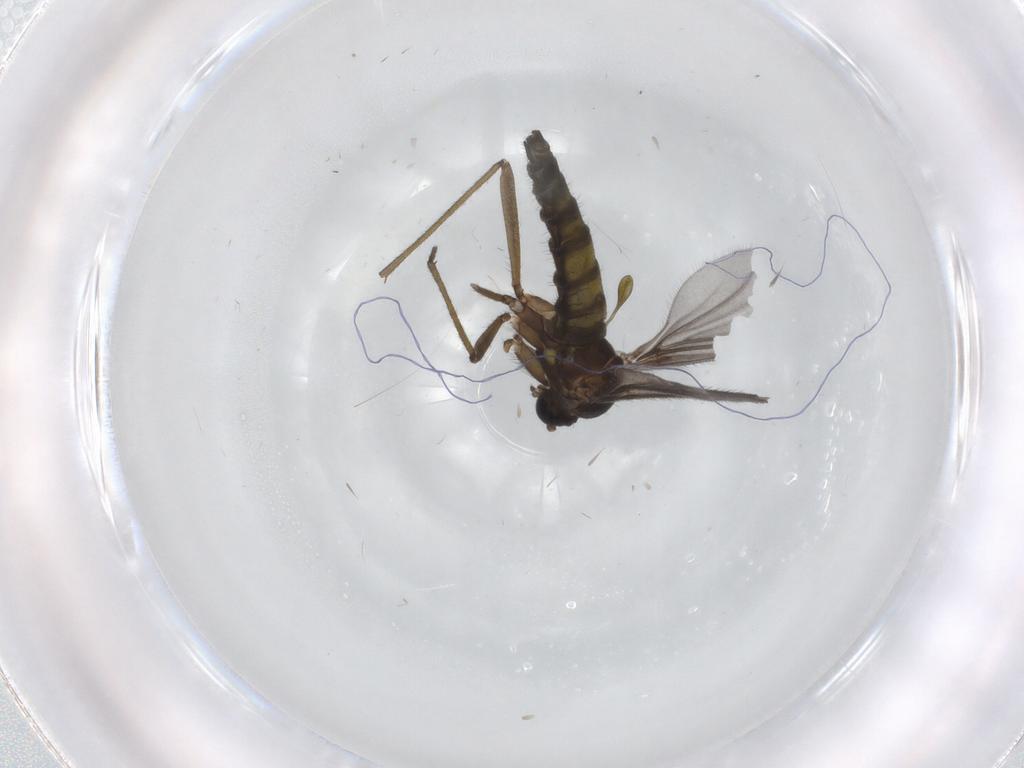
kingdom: Animalia
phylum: Arthropoda
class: Insecta
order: Diptera
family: Sciaridae
